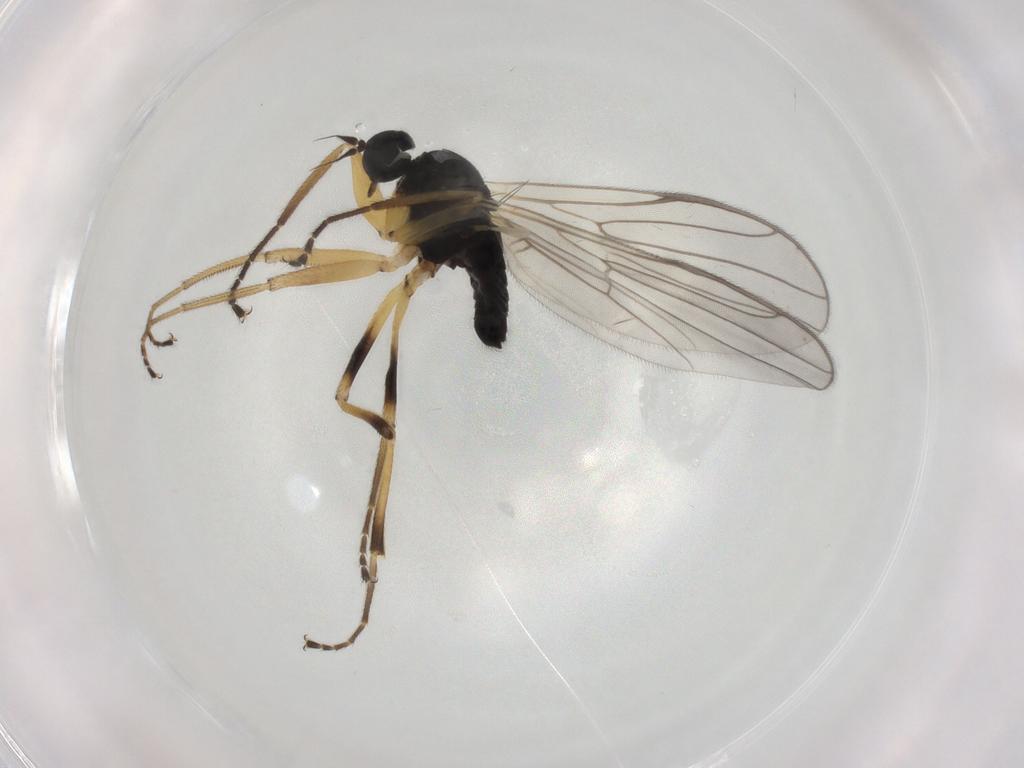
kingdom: Animalia
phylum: Arthropoda
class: Insecta
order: Diptera
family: Hybotidae
